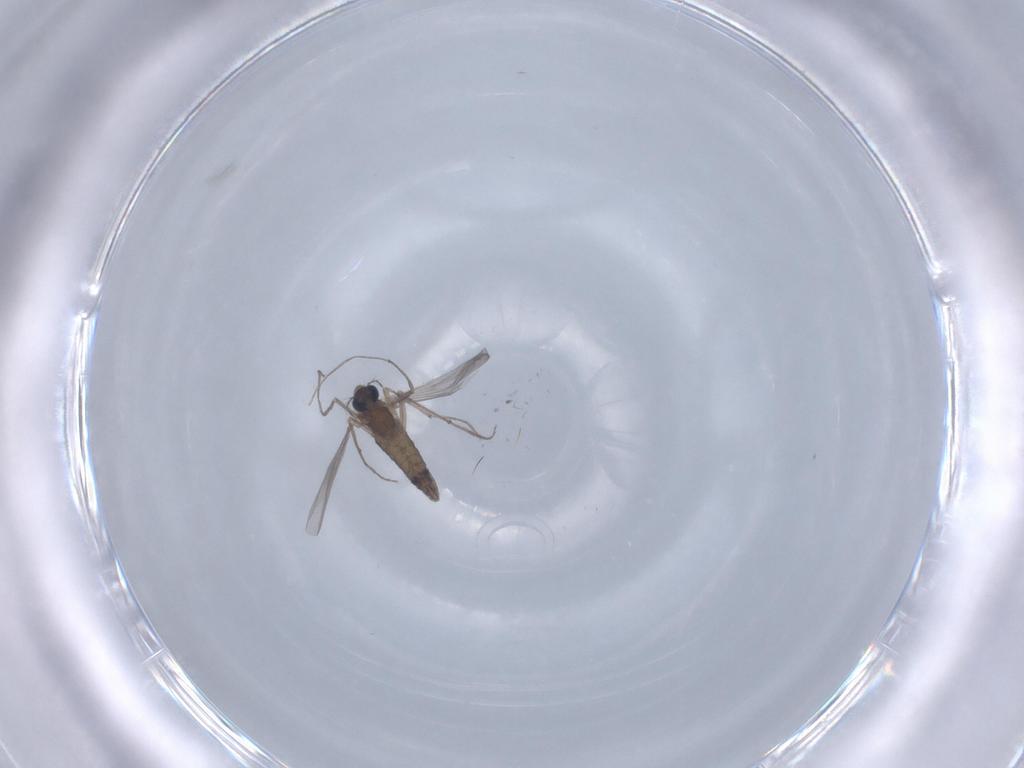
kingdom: Animalia
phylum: Arthropoda
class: Insecta
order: Diptera
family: Chironomidae
